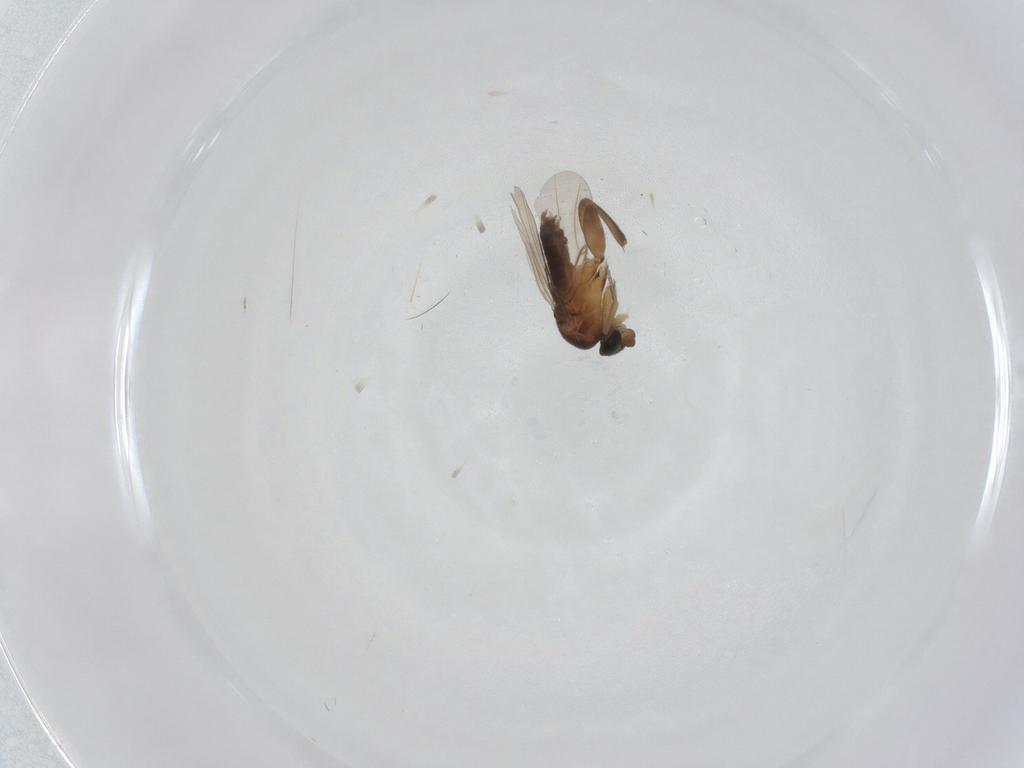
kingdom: Animalia
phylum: Arthropoda
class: Insecta
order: Diptera
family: Phoridae
